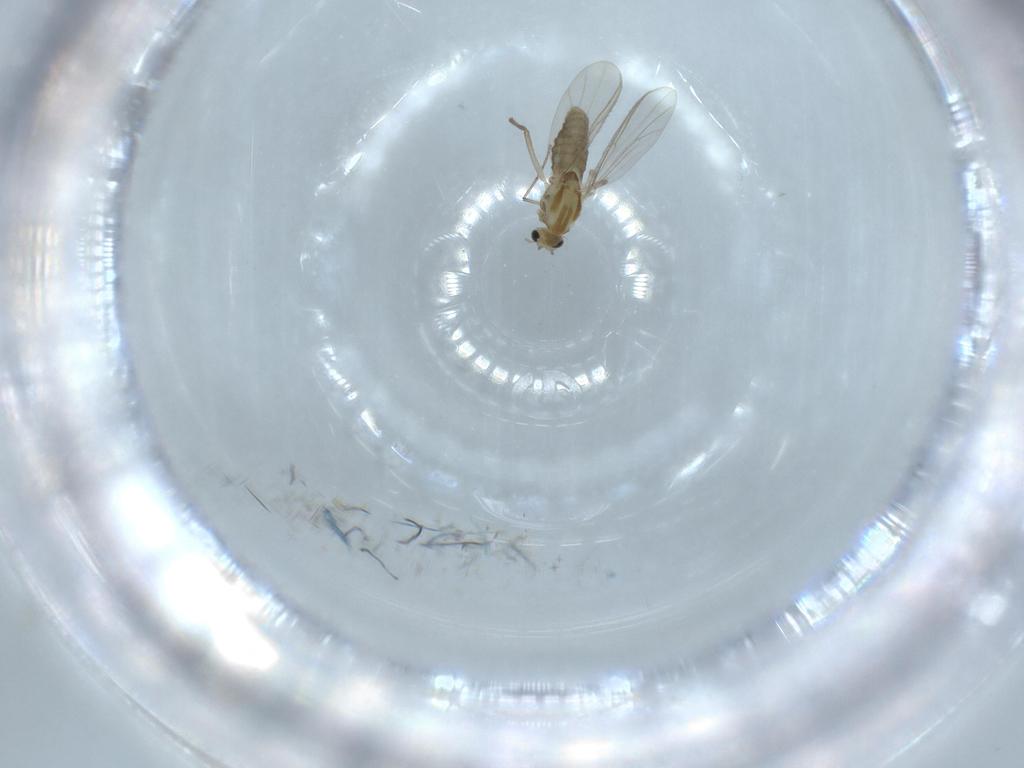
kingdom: Animalia
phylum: Arthropoda
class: Insecta
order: Diptera
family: Chironomidae
